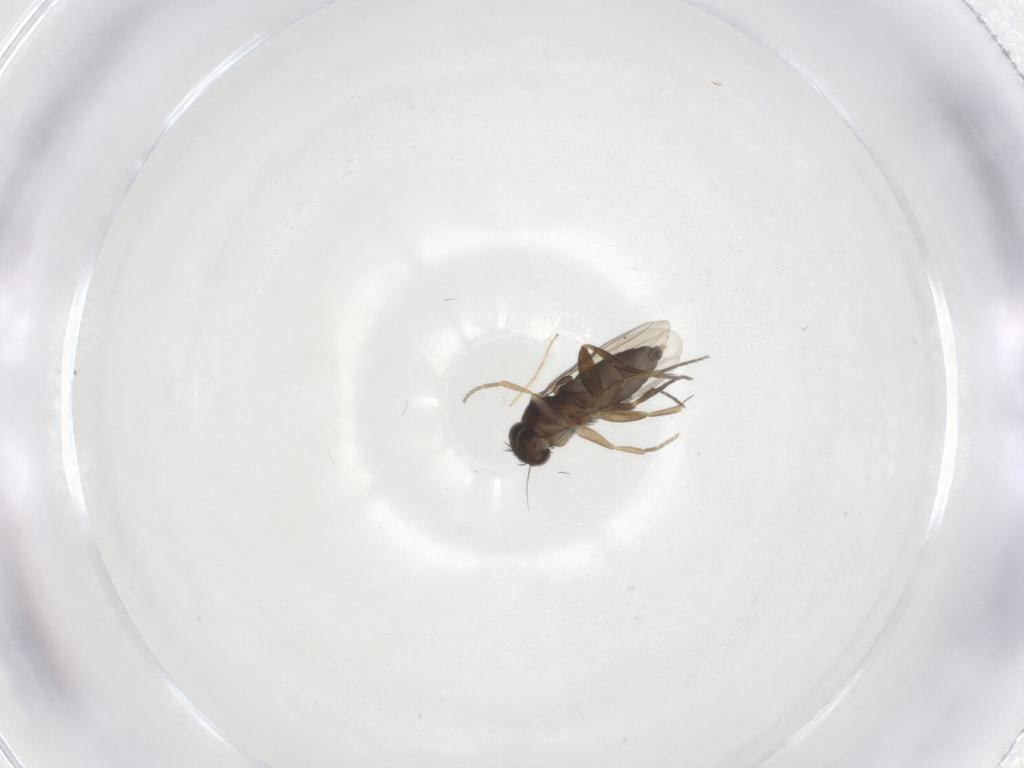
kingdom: Animalia
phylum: Arthropoda
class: Insecta
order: Diptera
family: Phoridae
